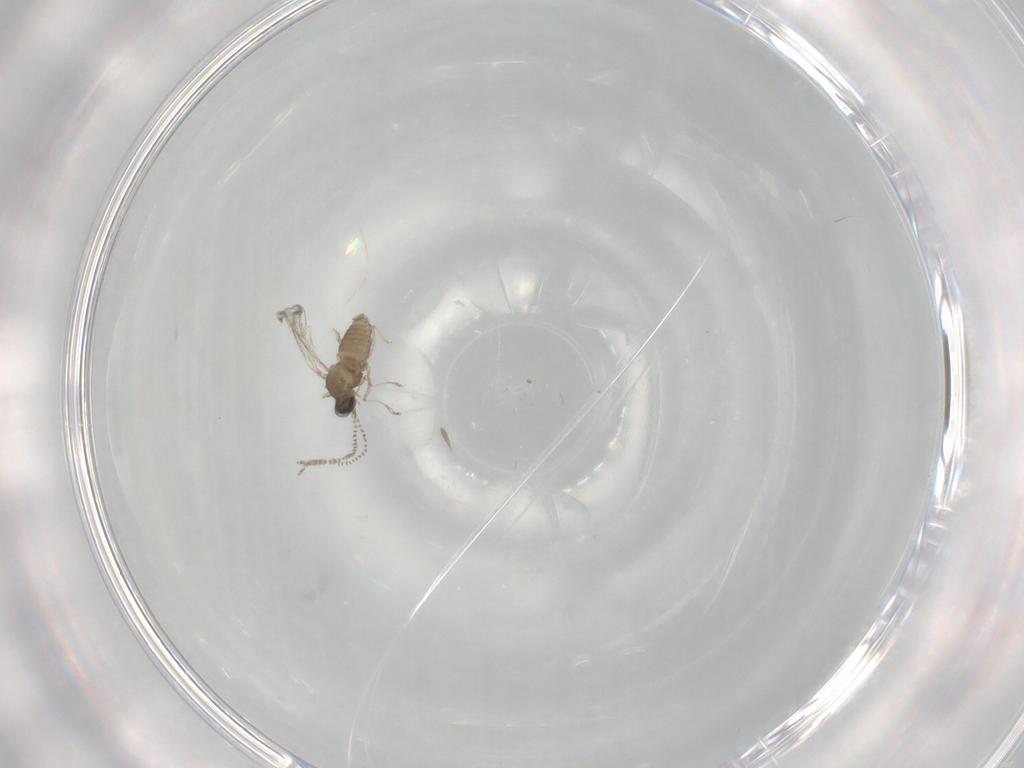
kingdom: Animalia
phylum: Arthropoda
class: Insecta
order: Diptera
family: Cecidomyiidae
